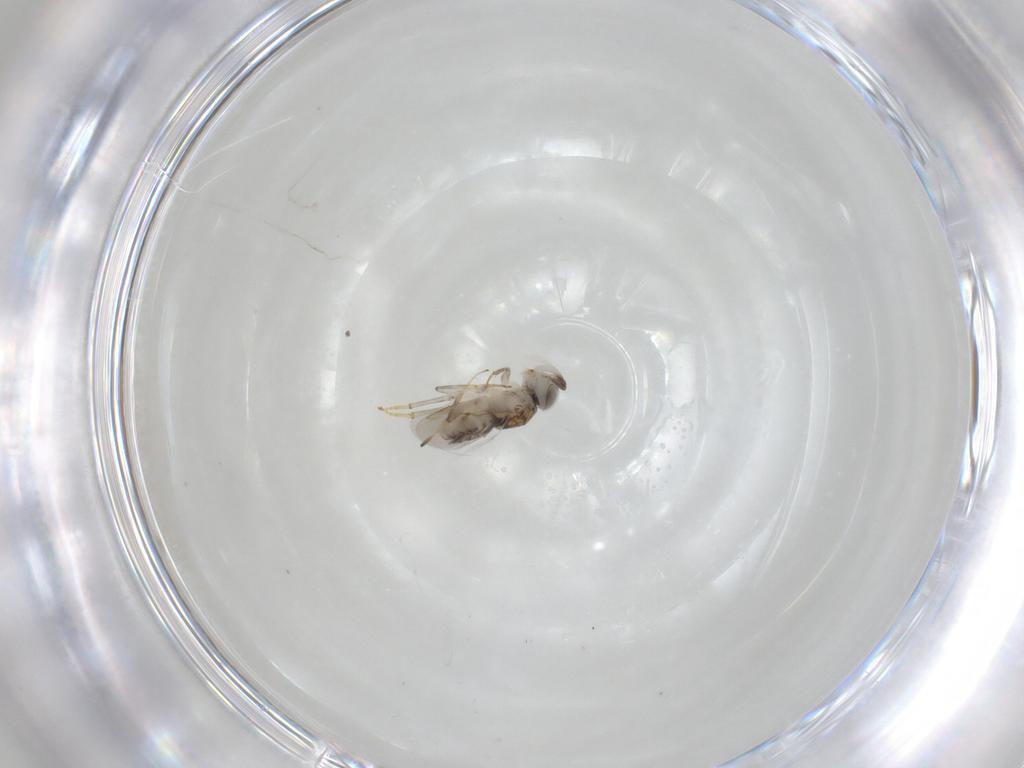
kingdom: Animalia
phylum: Arthropoda
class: Insecta
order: Hymenoptera
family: Encyrtidae
